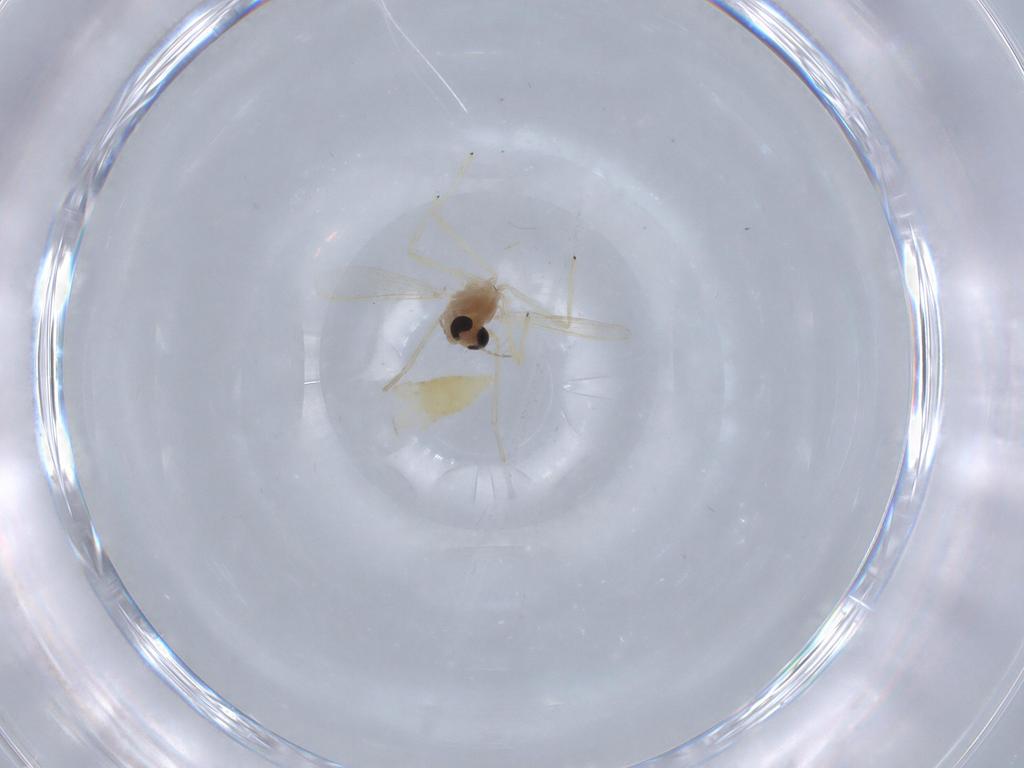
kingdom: Animalia
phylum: Arthropoda
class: Insecta
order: Diptera
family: Chironomidae
